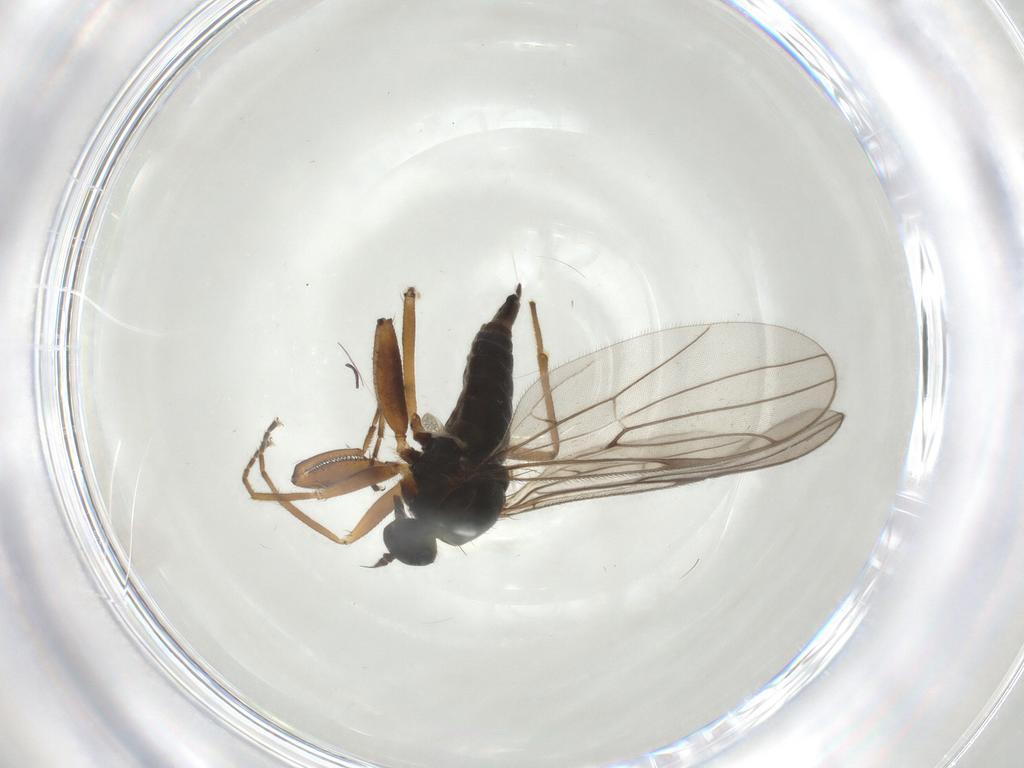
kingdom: Animalia
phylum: Arthropoda
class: Insecta
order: Diptera
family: Hybotidae
